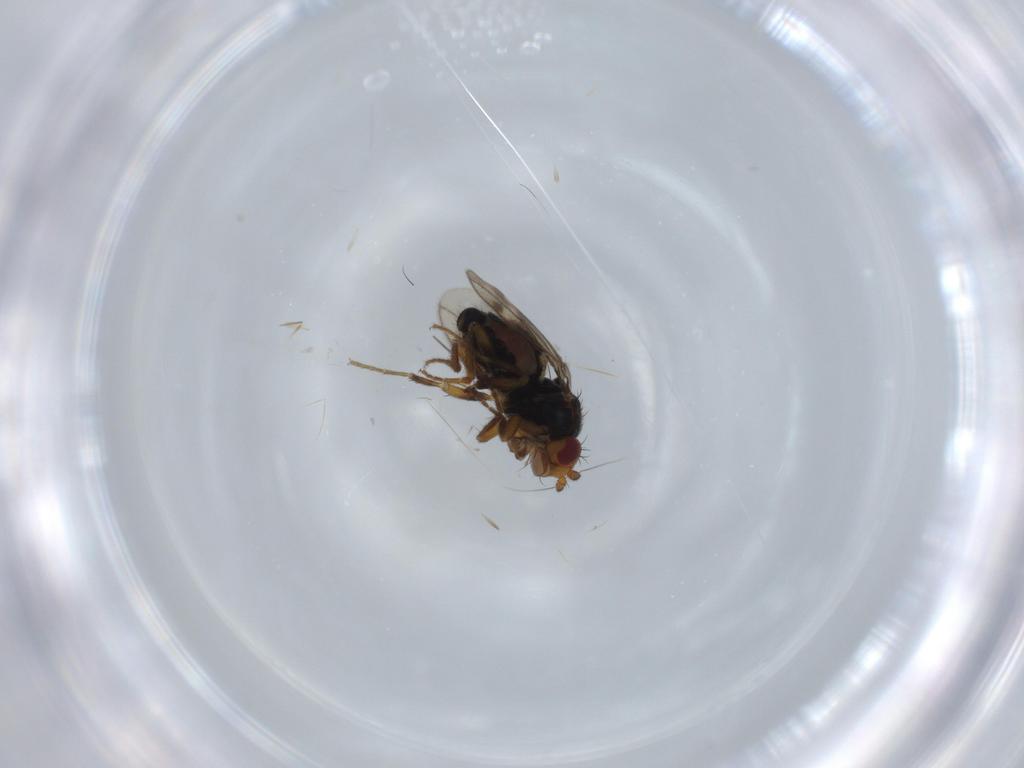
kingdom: Animalia
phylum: Arthropoda
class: Insecta
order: Diptera
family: Sphaeroceridae
